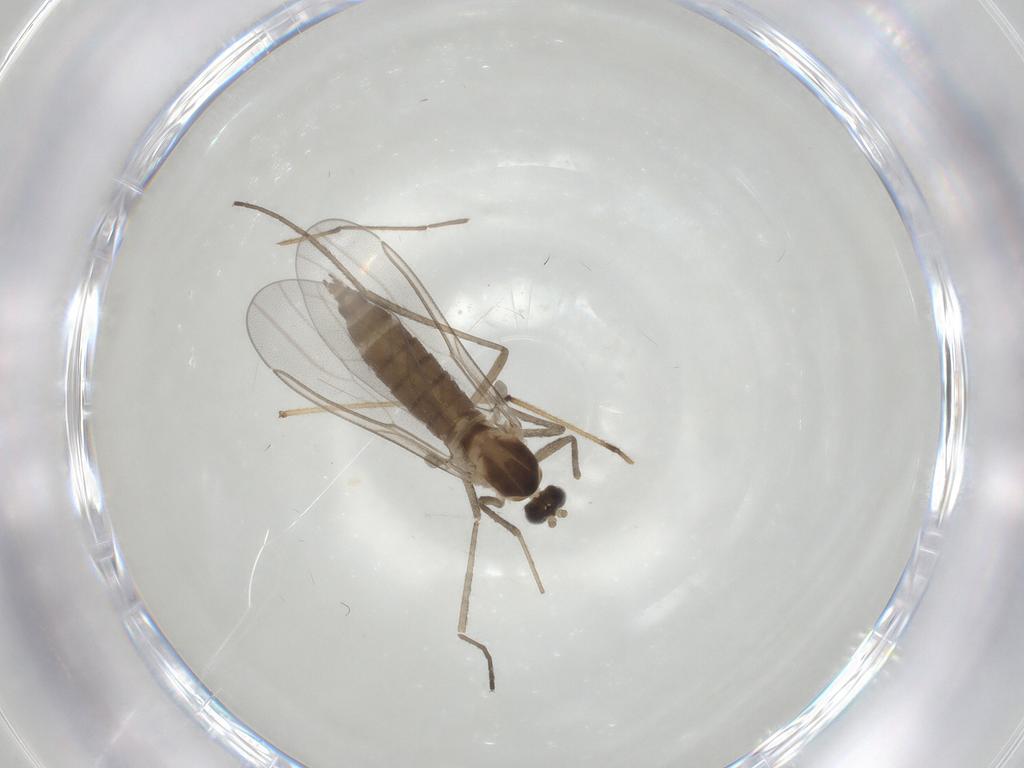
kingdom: Animalia
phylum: Arthropoda
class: Insecta
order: Diptera
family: Cecidomyiidae
